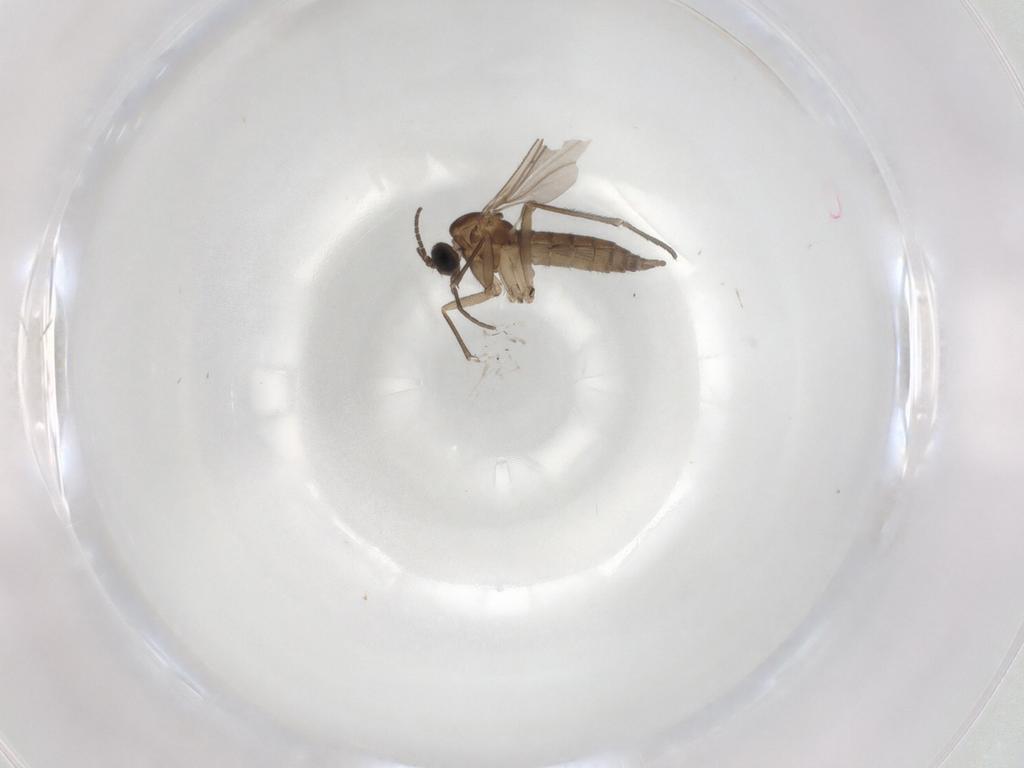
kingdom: Animalia
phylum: Arthropoda
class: Insecta
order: Diptera
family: Sciaridae
